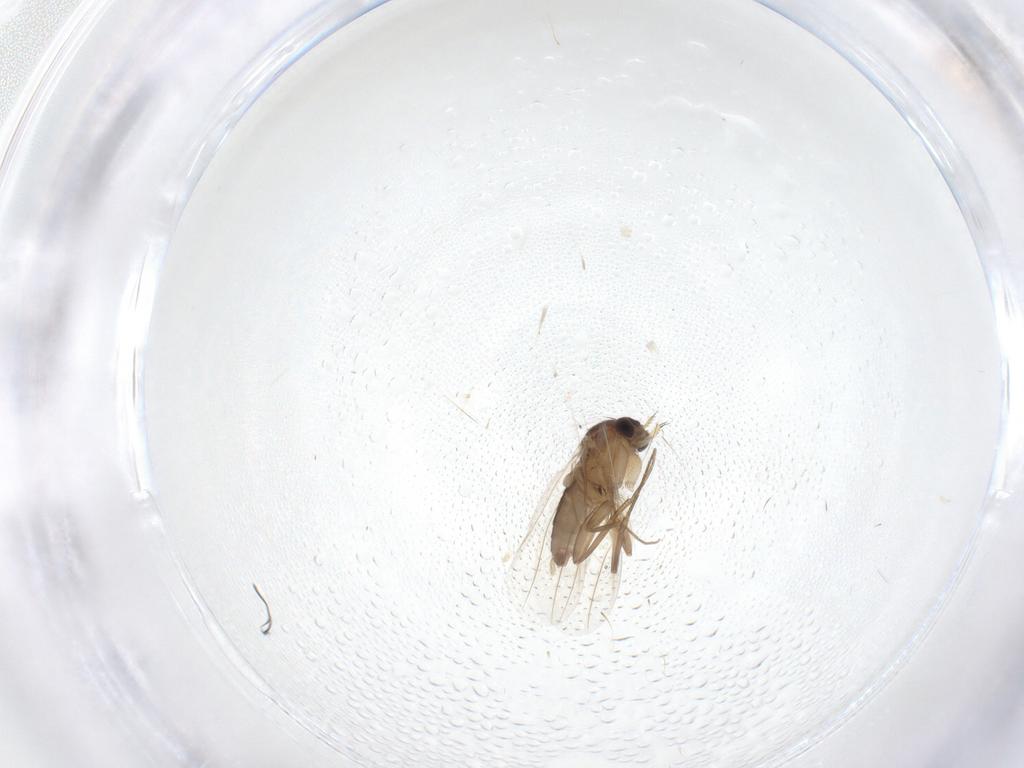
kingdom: Animalia
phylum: Arthropoda
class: Insecta
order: Diptera
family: Phoridae
